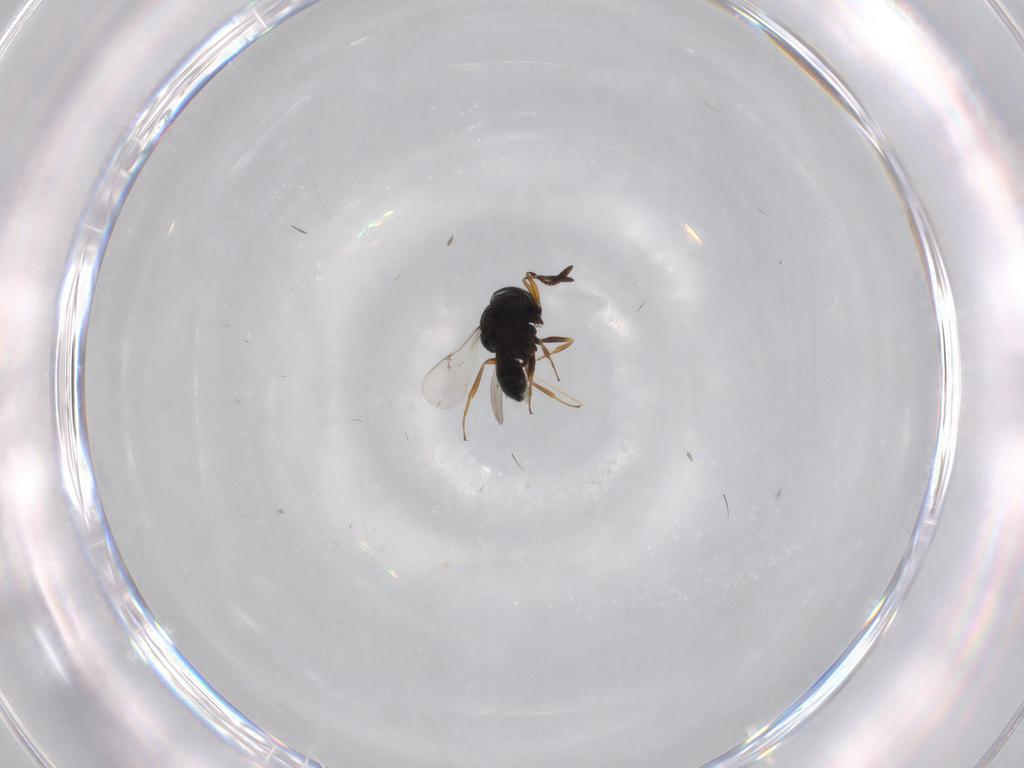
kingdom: Animalia
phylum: Arthropoda
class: Insecta
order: Hymenoptera
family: Scelionidae
